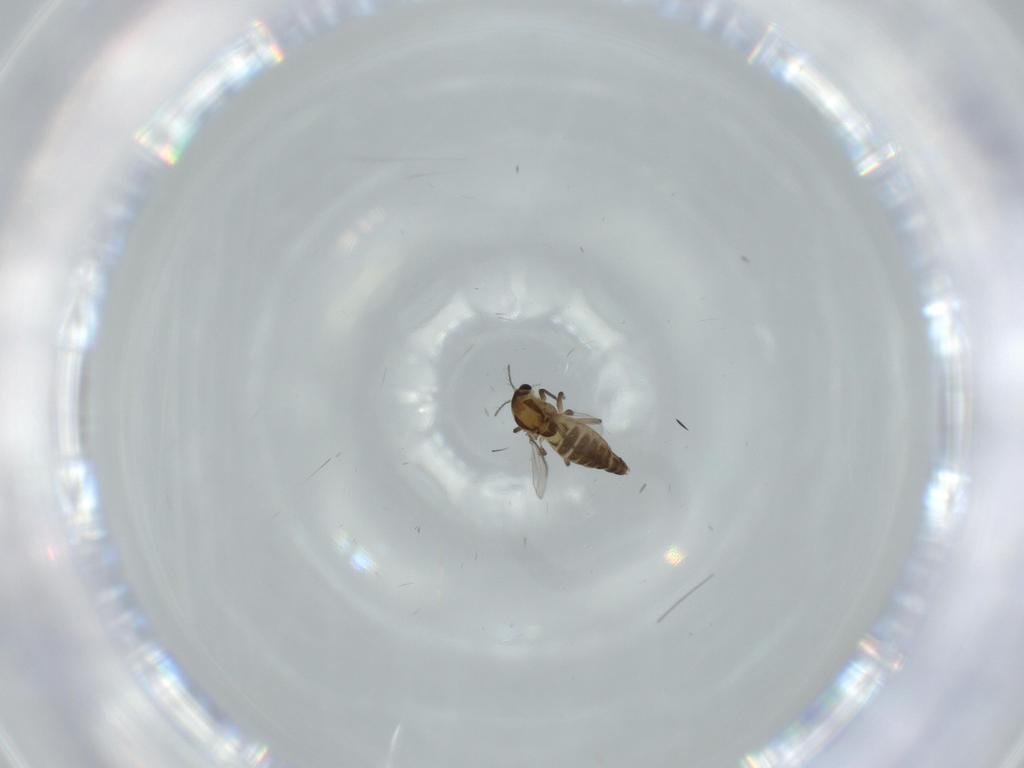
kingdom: Animalia
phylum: Arthropoda
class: Insecta
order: Diptera
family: Chironomidae
